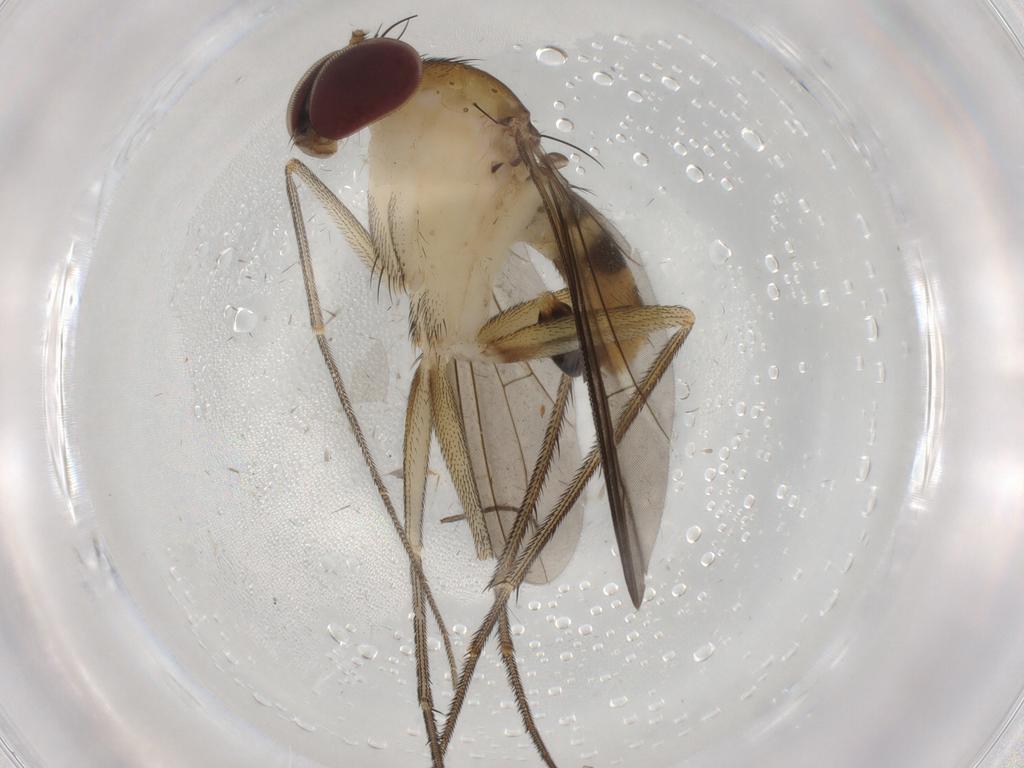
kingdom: Animalia
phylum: Arthropoda
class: Insecta
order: Diptera
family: Dolichopodidae
